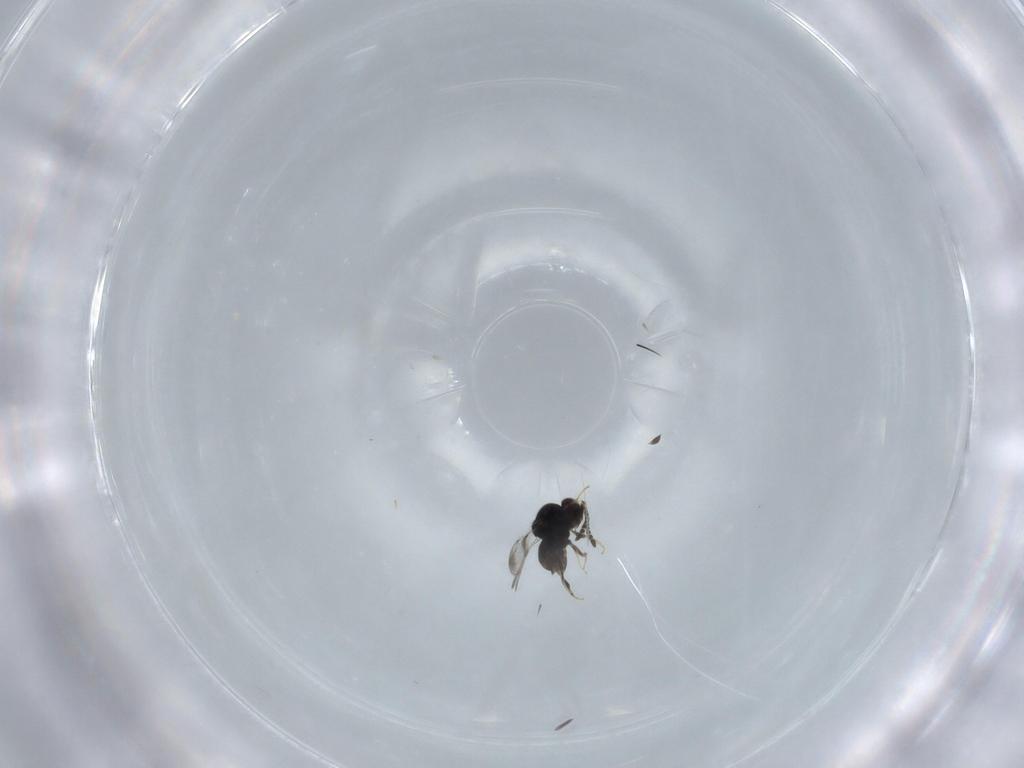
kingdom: Animalia
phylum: Arthropoda
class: Insecta
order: Hymenoptera
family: Ceraphronidae
